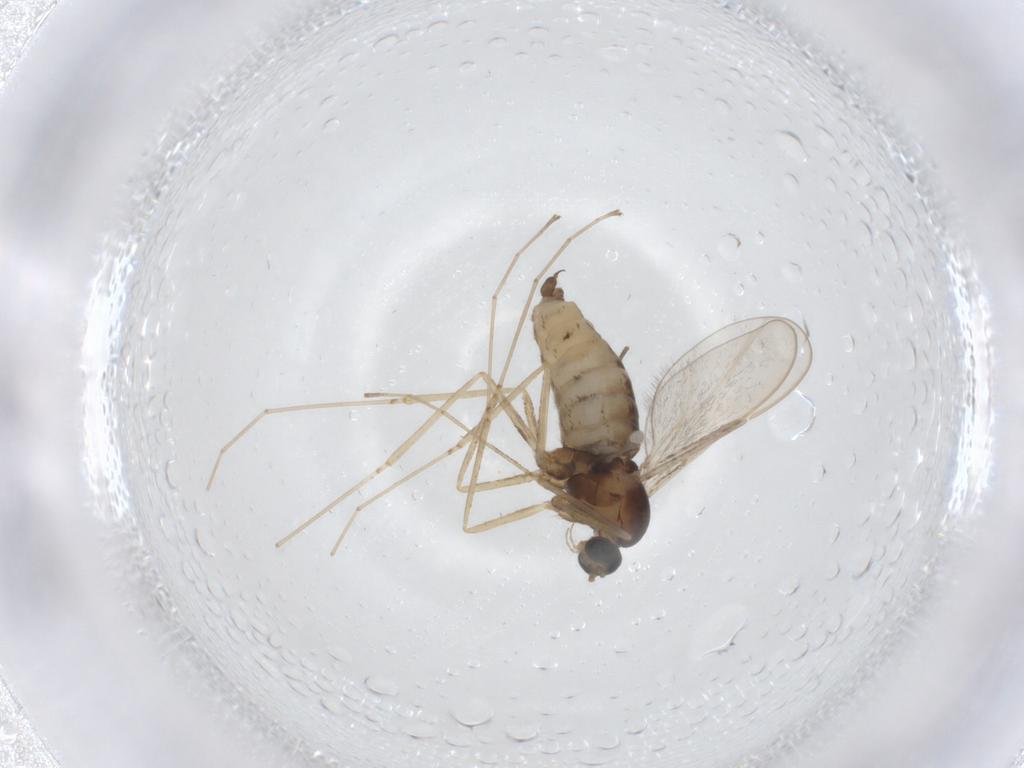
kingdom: Animalia
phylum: Arthropoda
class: Insecta
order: Diptera
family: Cecidomyiidae
